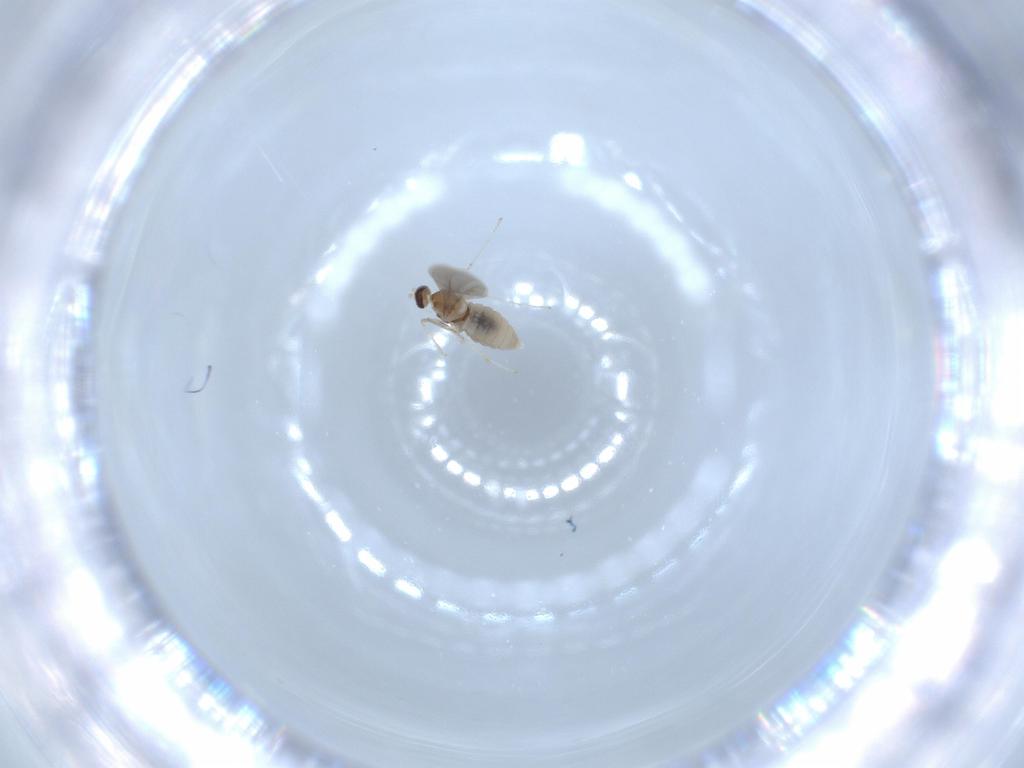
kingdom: Animalia
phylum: Arthropoda
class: Insecta
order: Diptera
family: Cecidomyiidae
